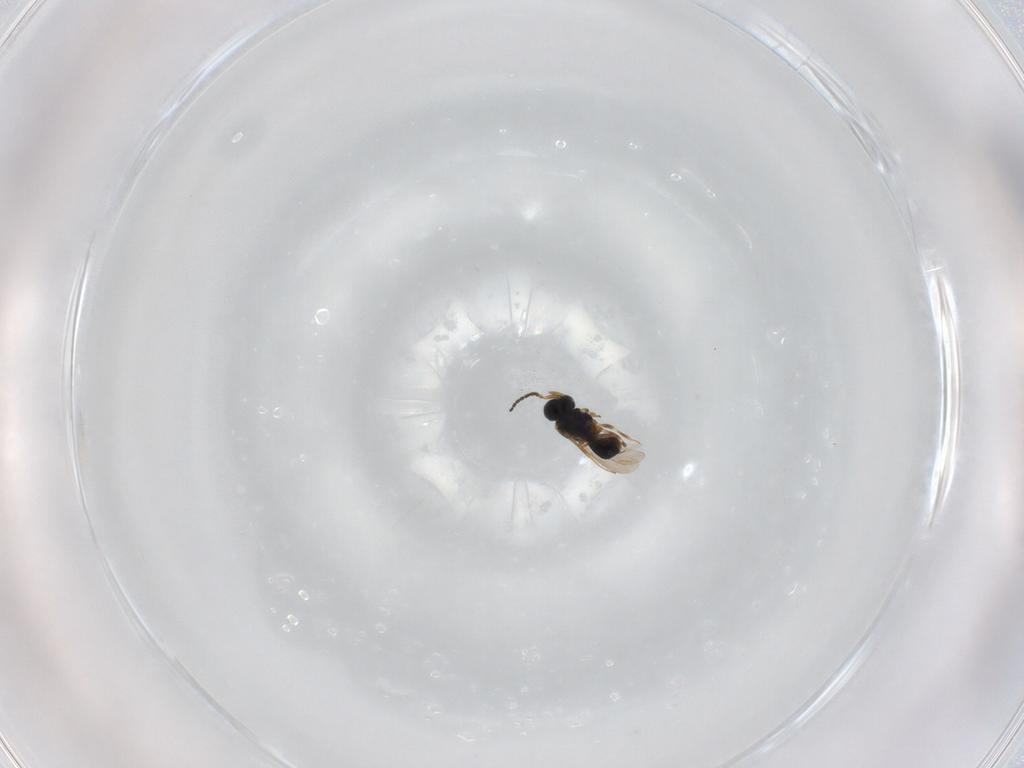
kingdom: Animalia
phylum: Arthropoda
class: Insecta
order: Hymenoptera
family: Scelionidae
